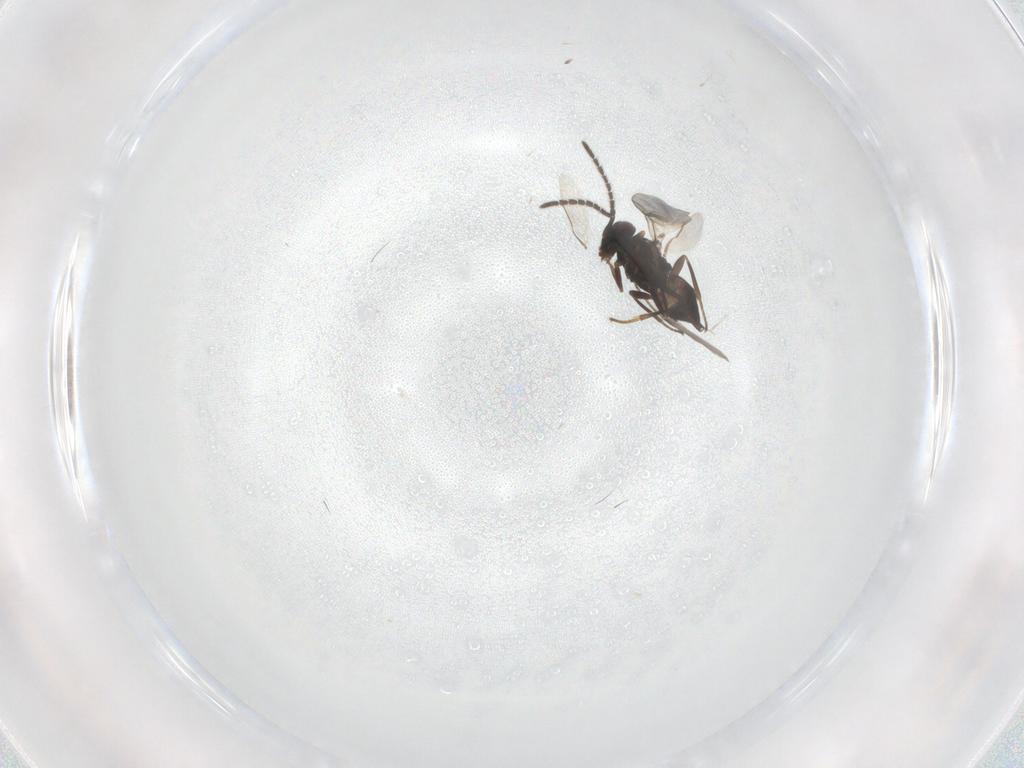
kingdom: Animalia
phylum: Arthropoda
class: Insecta
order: Hymenoptera
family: Encyrtidae
